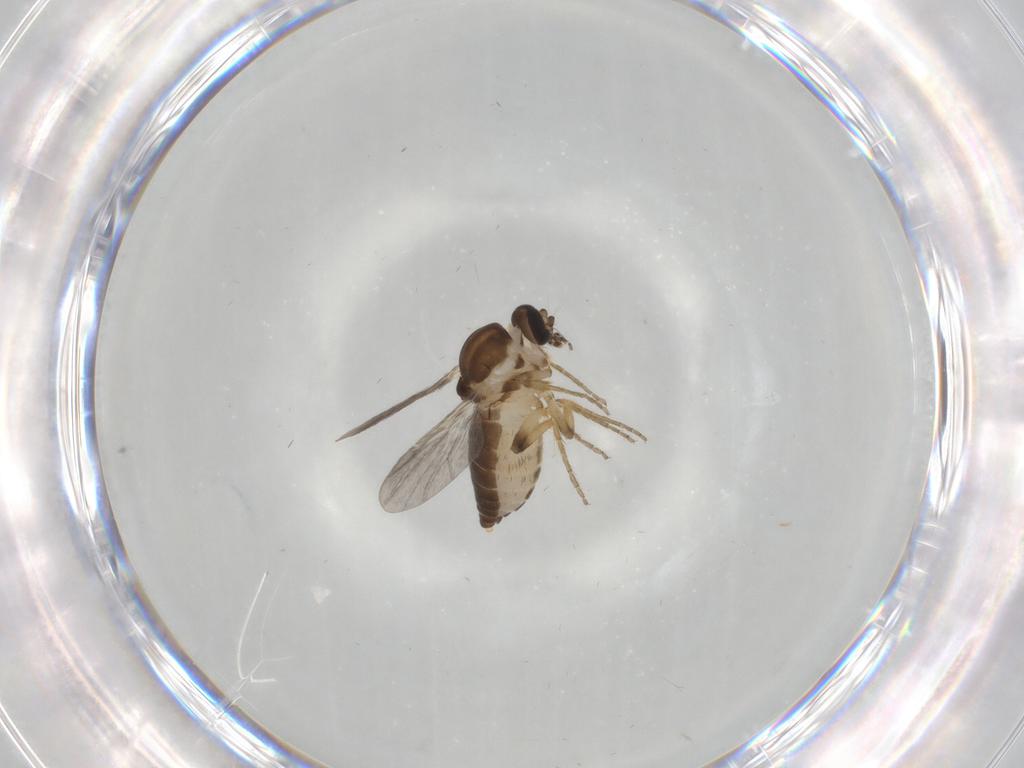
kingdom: Animalia
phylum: Arthropoda
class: Insecta
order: Diptera
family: Ceratopogonidae
